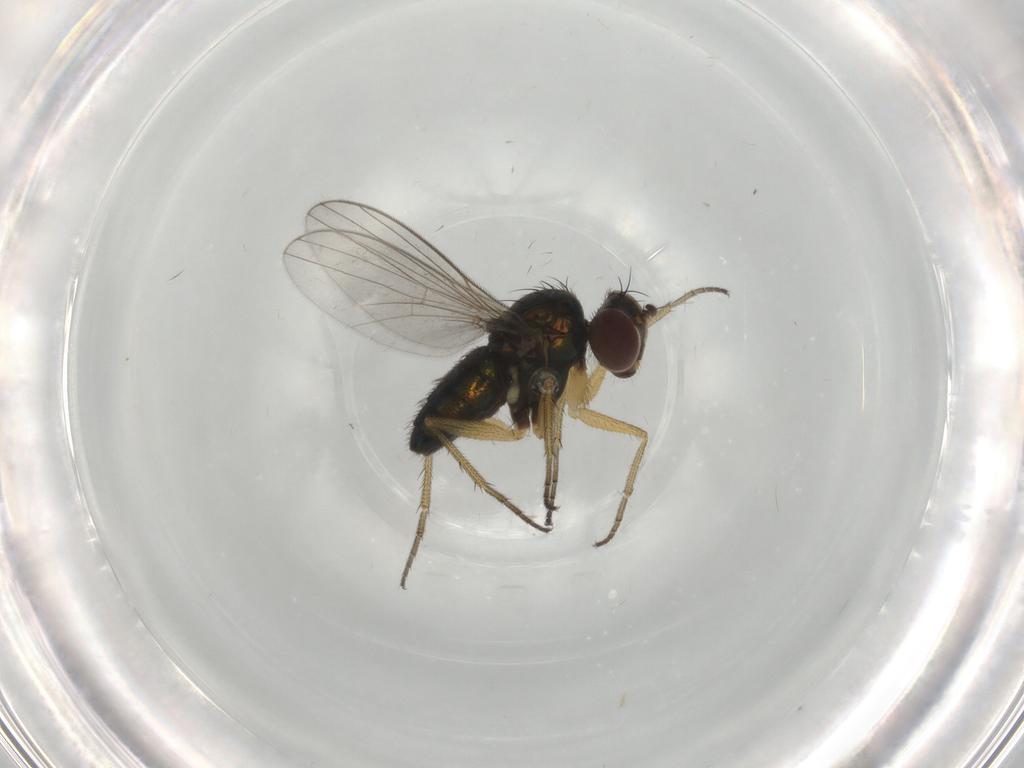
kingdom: Animalia
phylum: Arthropoda
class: Insecta
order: Diptera
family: Dolichopodidae
